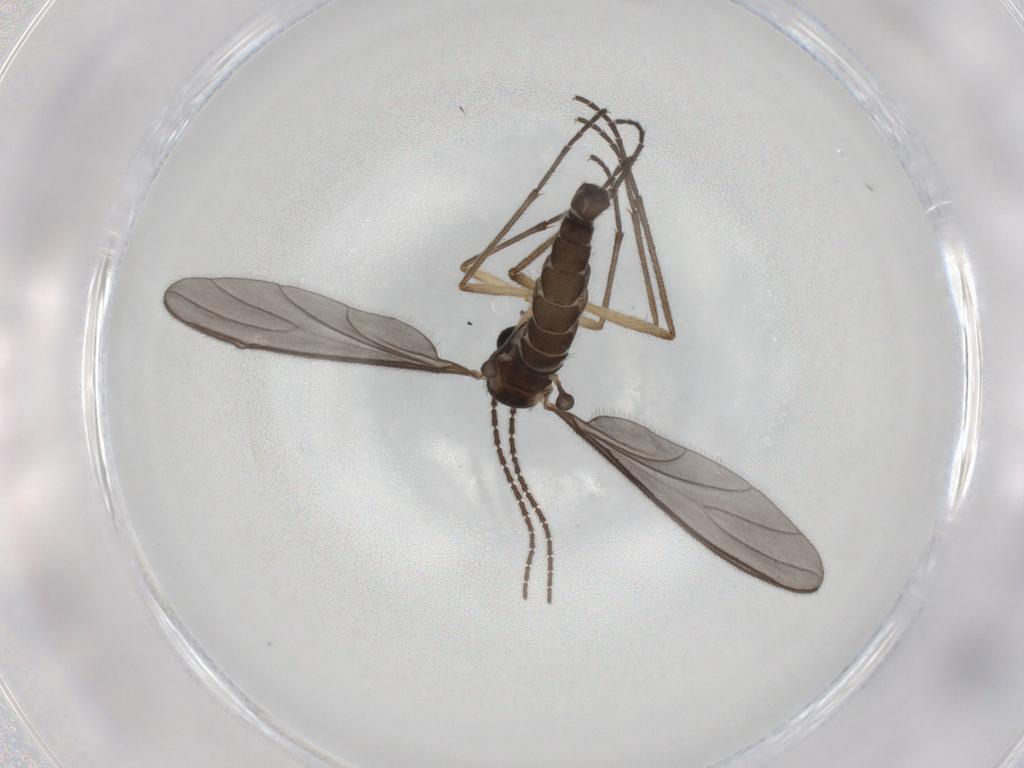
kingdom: Animalia
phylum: Arthropoda
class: Insecta
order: Diptera
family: Sciaridae
